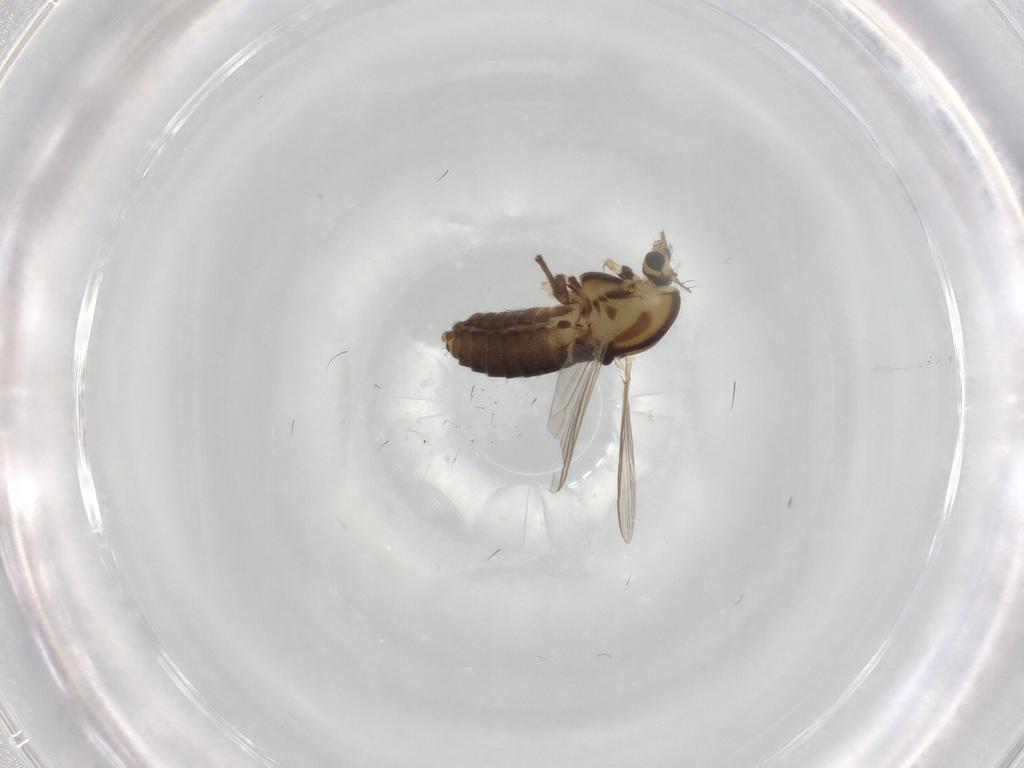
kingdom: Animalia
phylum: Arthropoda
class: Insecta
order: Diptera
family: Chironomidae
